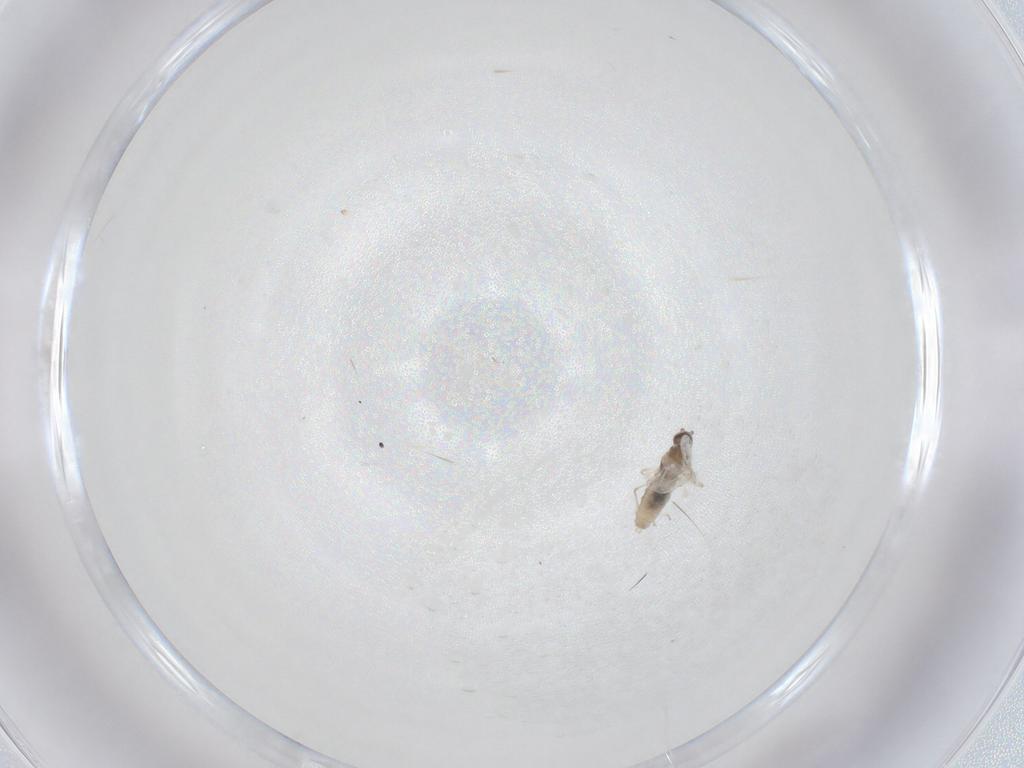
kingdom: Animalia
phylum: Arthropoda
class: Insecta
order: Diptera
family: Cecidomyiidae
